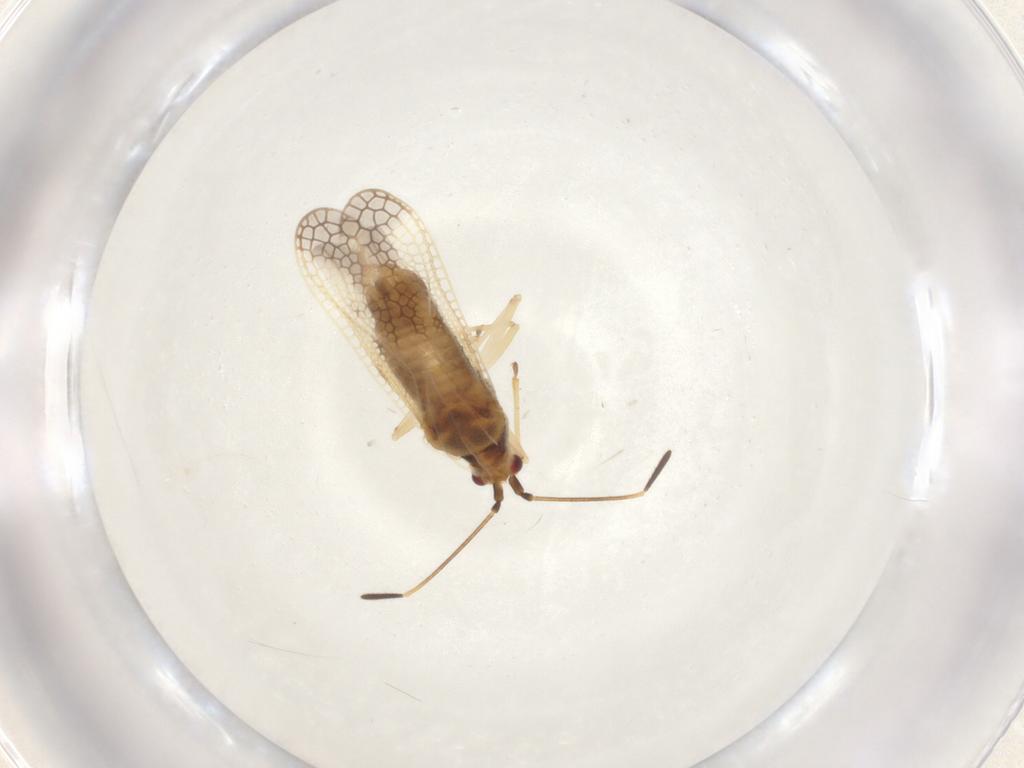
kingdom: Animalia
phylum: Arthropoda
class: Insecta
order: Hemiptera
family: Tingidae
